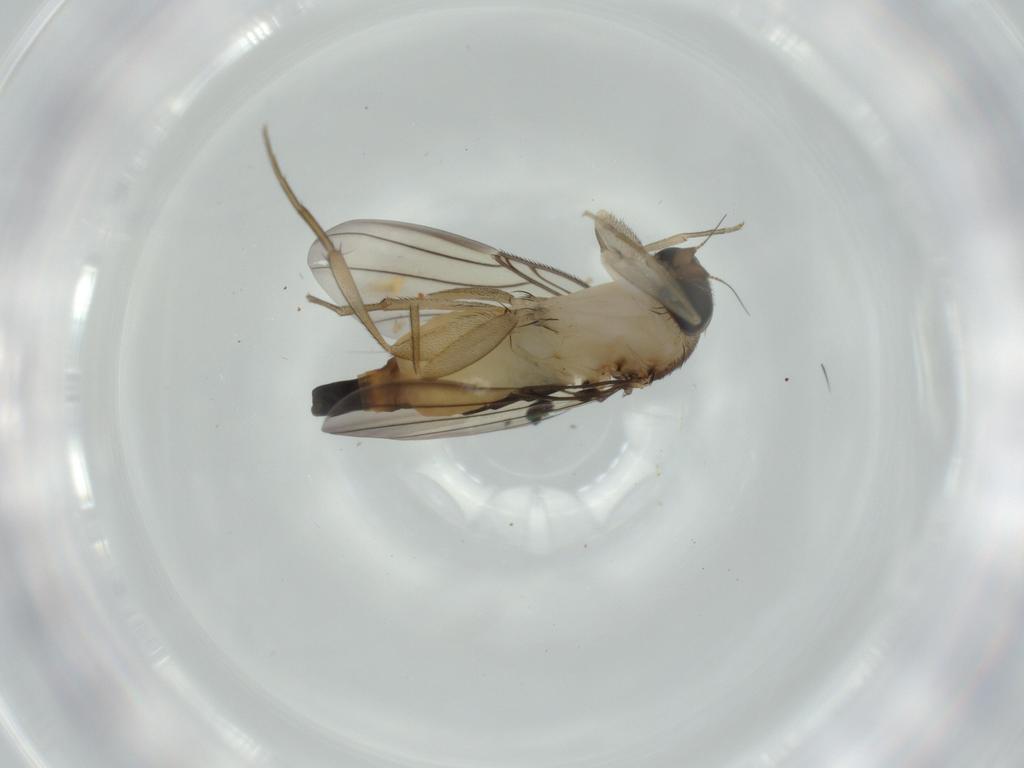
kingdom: Animalia
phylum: Arthropoda
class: Insecta
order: Diptera
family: Phoridae
